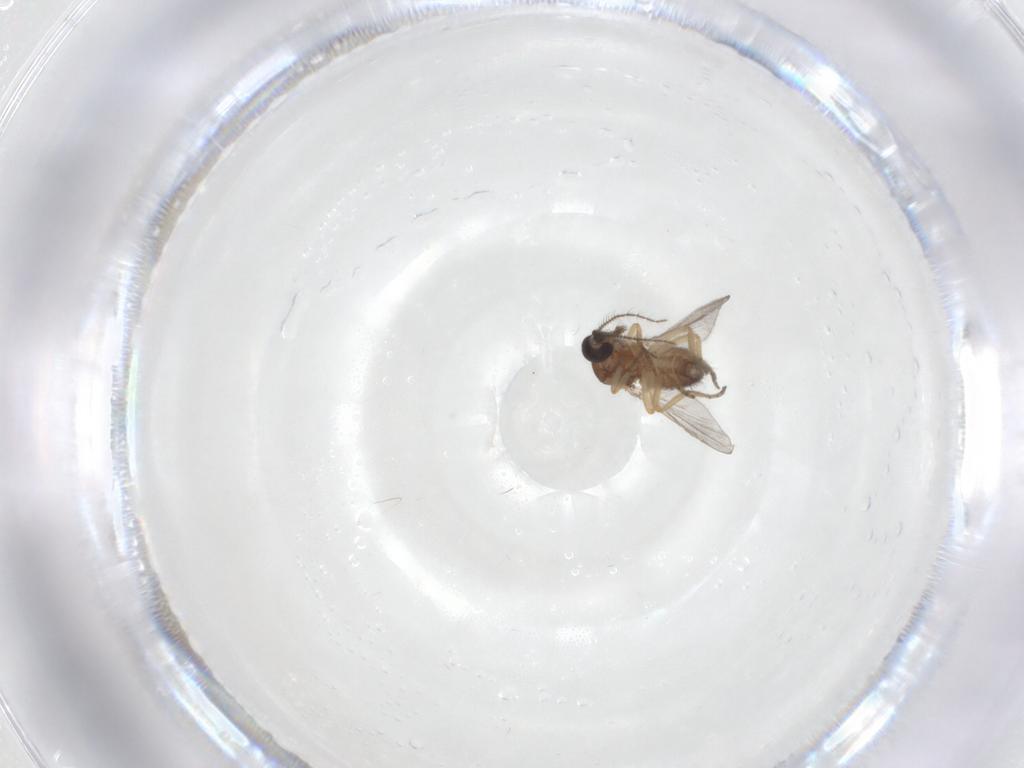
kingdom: Animalia
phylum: Arthropoda
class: Insecta
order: Diptera
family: Ceratopogonidae
